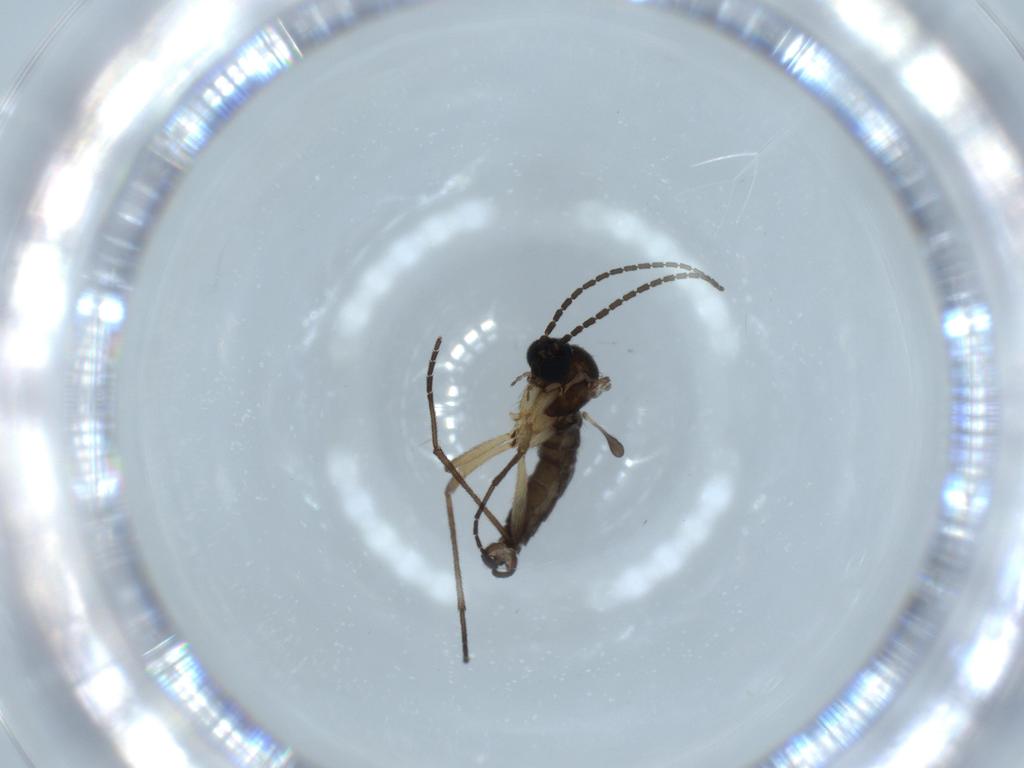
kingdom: Animalia
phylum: Arthropoda
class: Insecta
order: Diptera
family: Sciaridae
